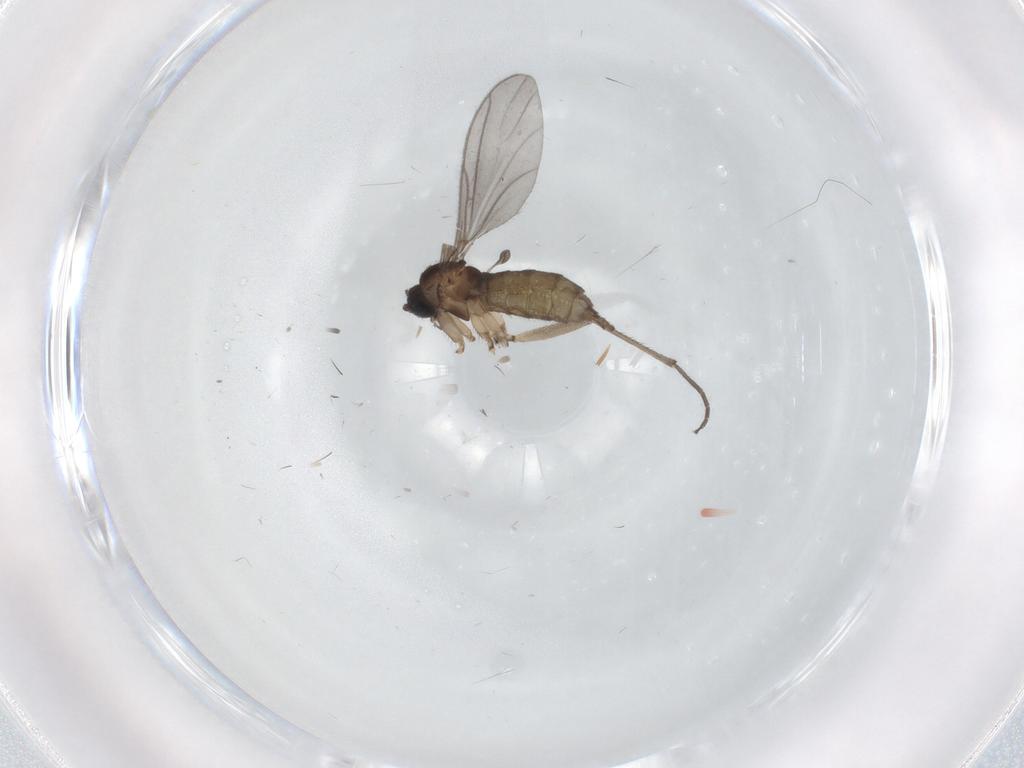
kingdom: Animalia
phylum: Arthropoda
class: Insecta
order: Diptera
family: Sciaridae
